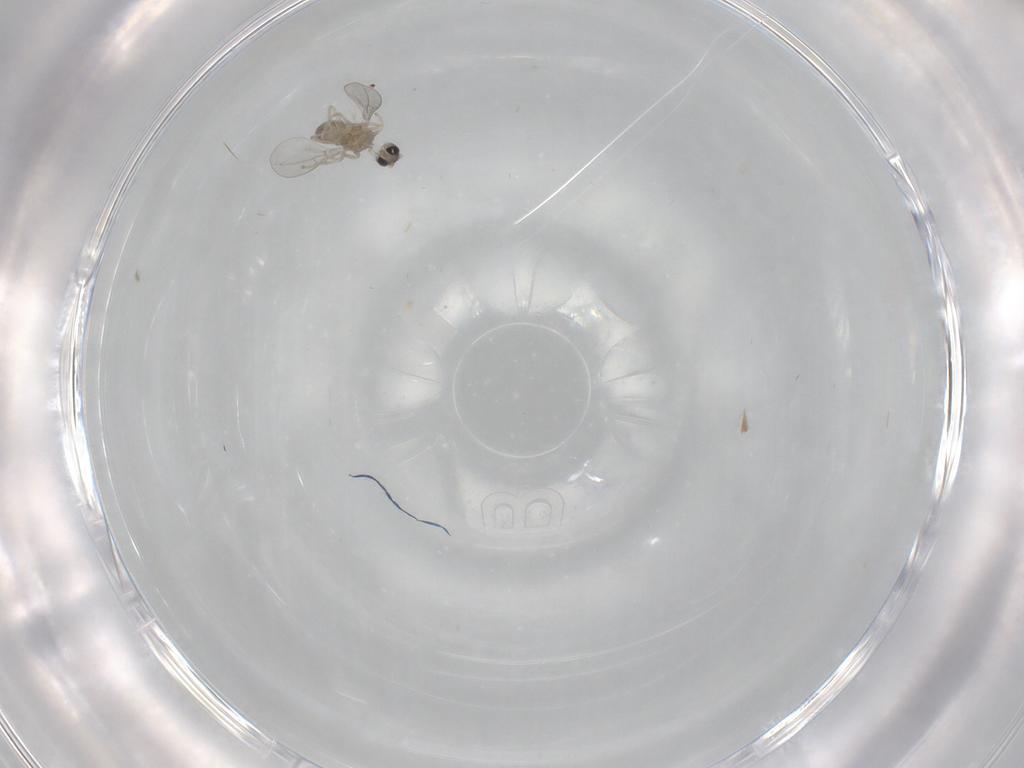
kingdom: Animalia
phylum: Arthropoda
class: Insecta
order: Diptera
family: Cecidomyiidae
